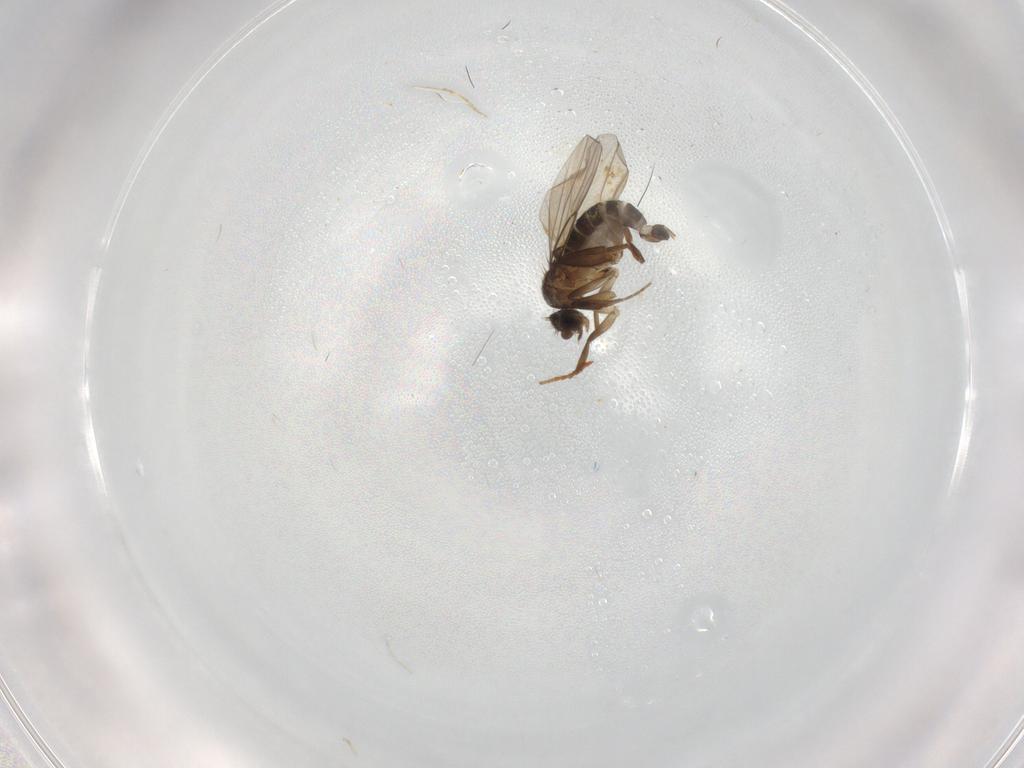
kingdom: Animalia
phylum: Arthropoda
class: Insecta
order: Diptera
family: Phoridae
